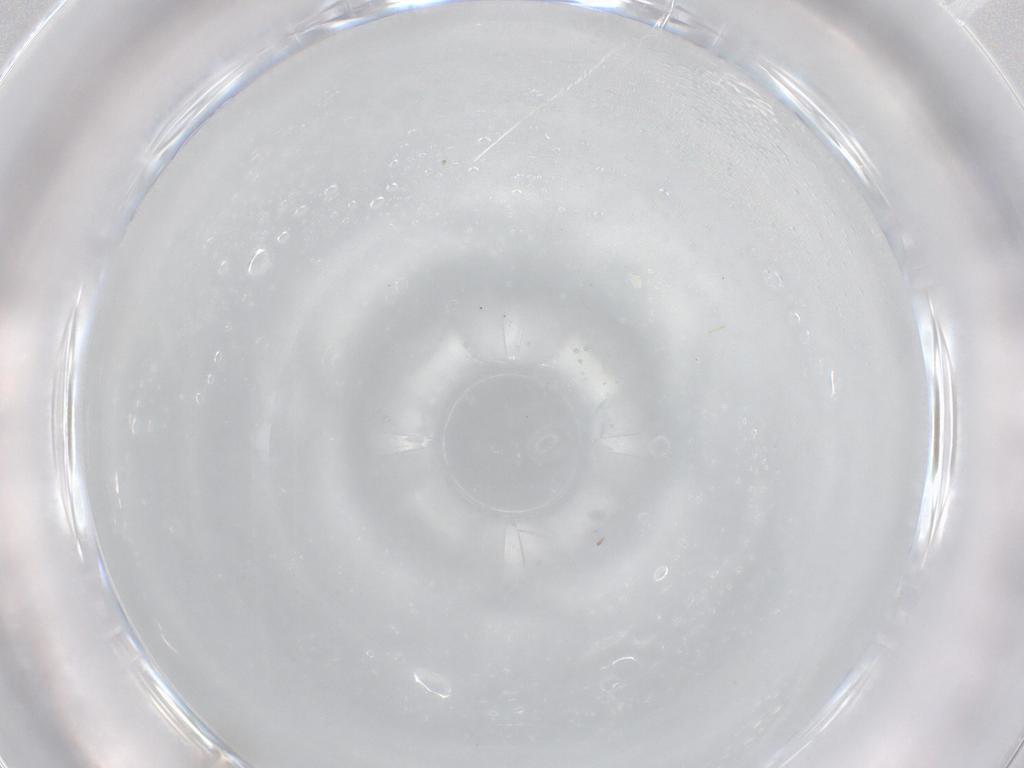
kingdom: Animalia
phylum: Arthropoda
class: Insecta
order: Diptera
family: Cecidomyiidae
